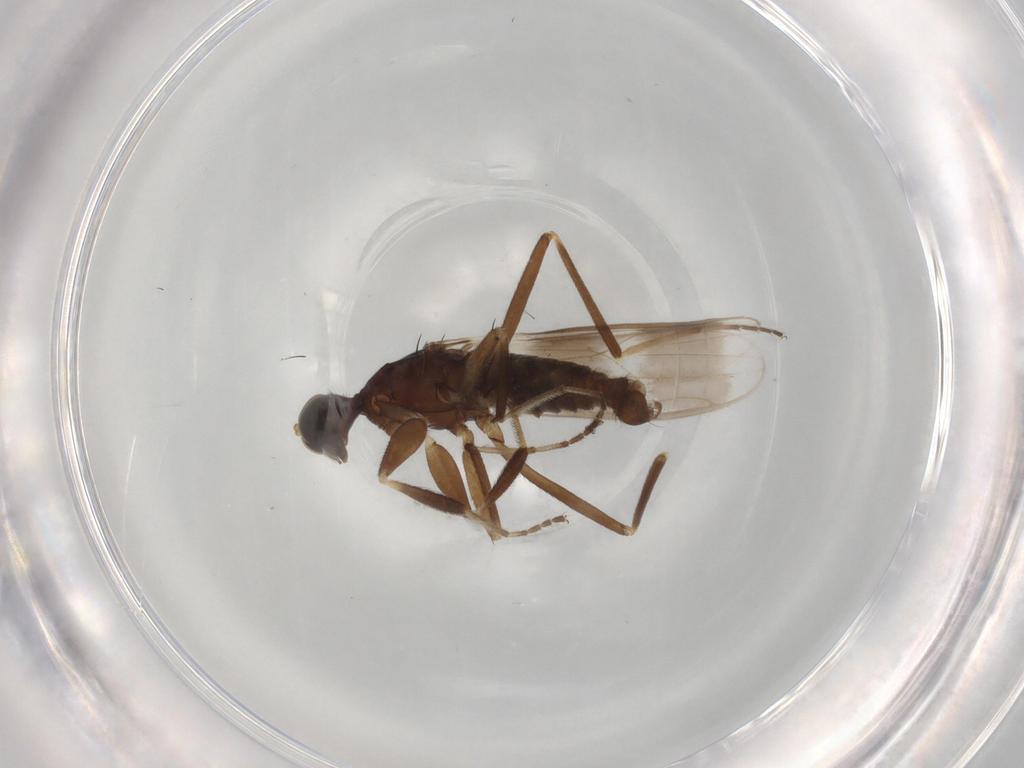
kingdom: Animalia
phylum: Arthropoda
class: Insecta
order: Diptera
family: Hybotidae
